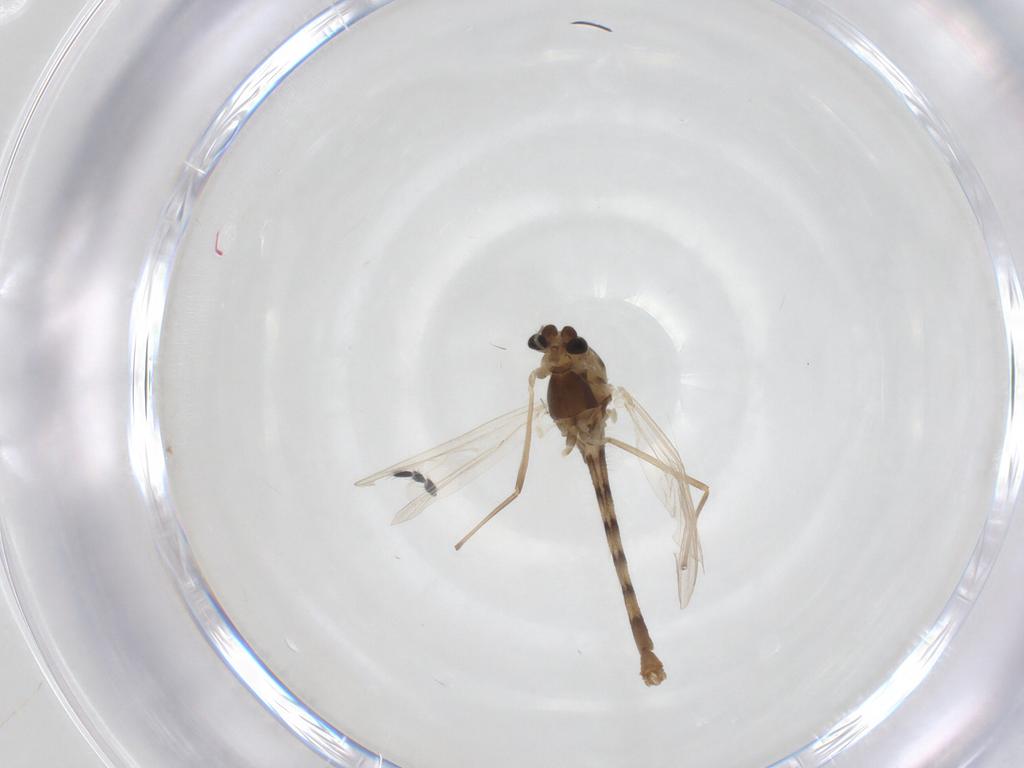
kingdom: Animalia
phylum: Arthropoda
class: Insecta
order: Diptera
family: Chironomidae
